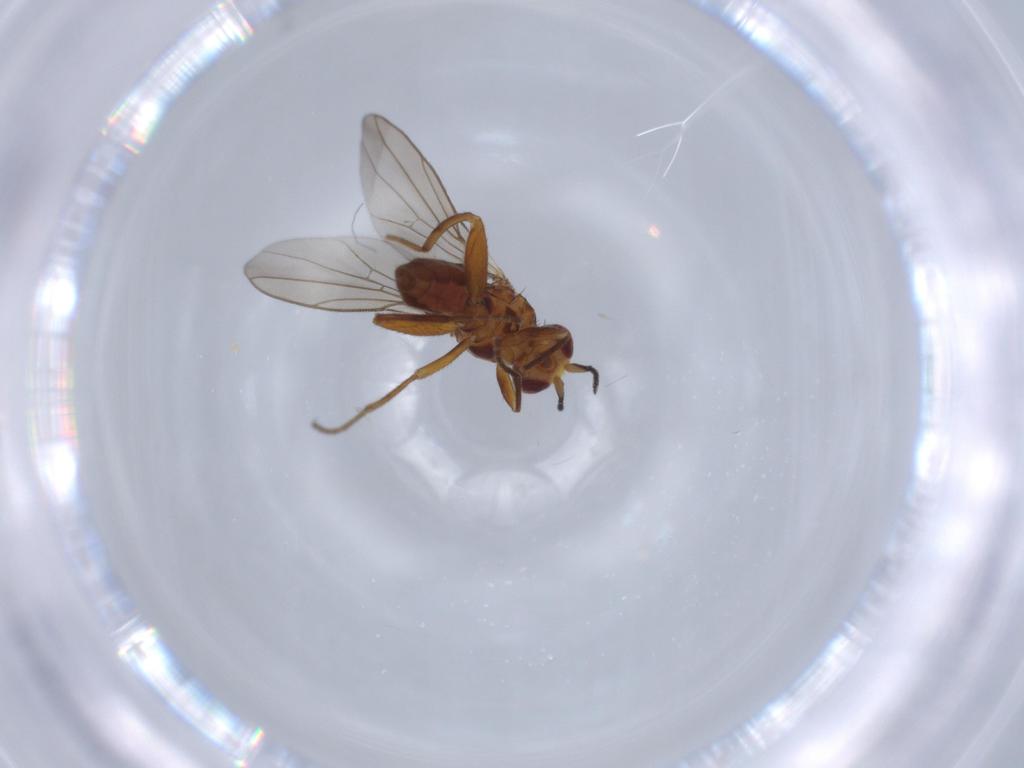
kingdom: Animalia
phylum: Arthropoda
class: Insecta
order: Diptera
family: Chloropidae
